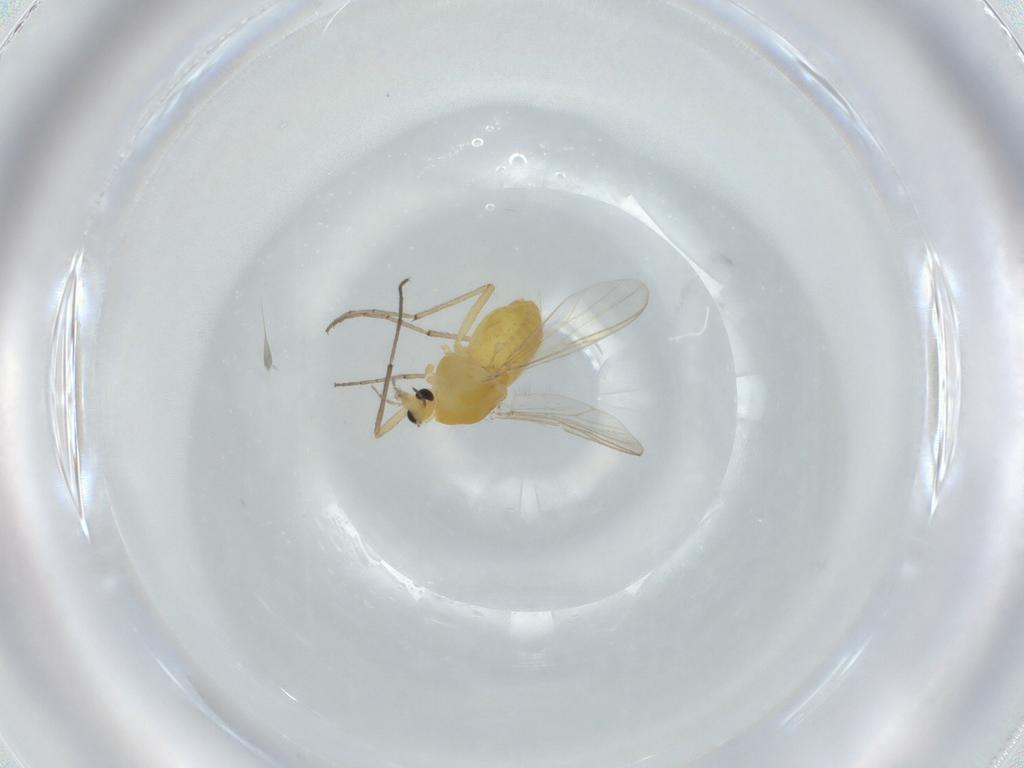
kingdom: Animalia
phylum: Arthropoda
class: Insecta
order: Diptera
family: Chironomidae
